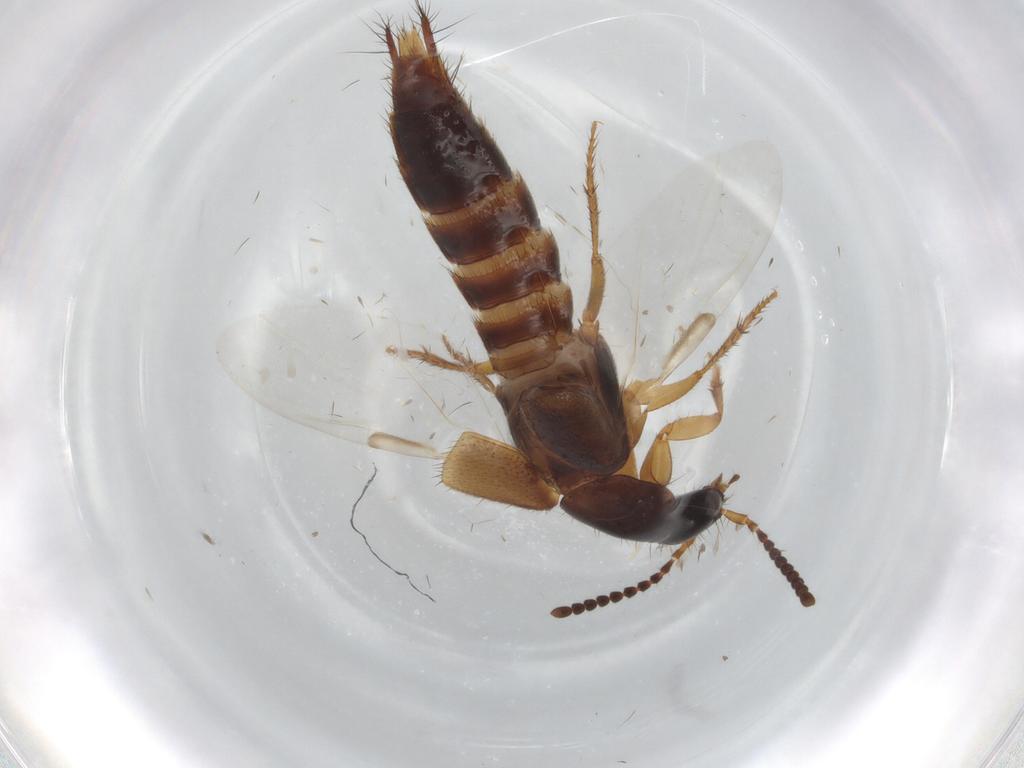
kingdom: Animalia
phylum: Arthropoda
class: Insecta
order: Coleoptera
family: Staphylinidae
